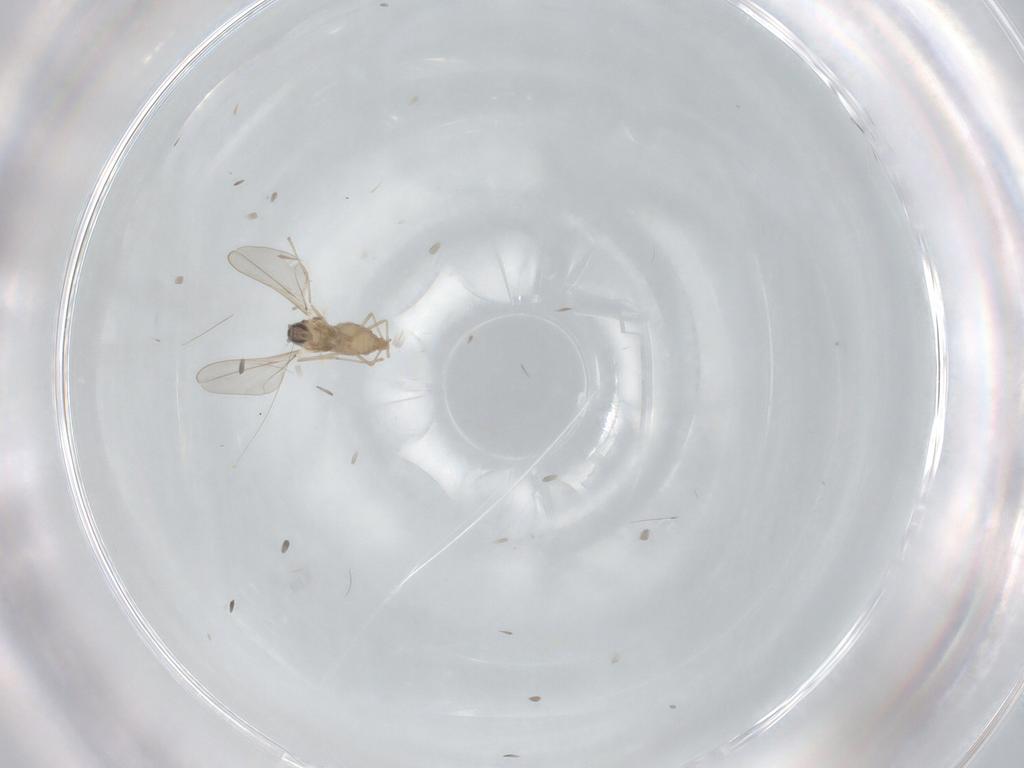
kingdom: Animalia
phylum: Arthropoda
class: Insecta
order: Diptera
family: Cecidomyiidae
